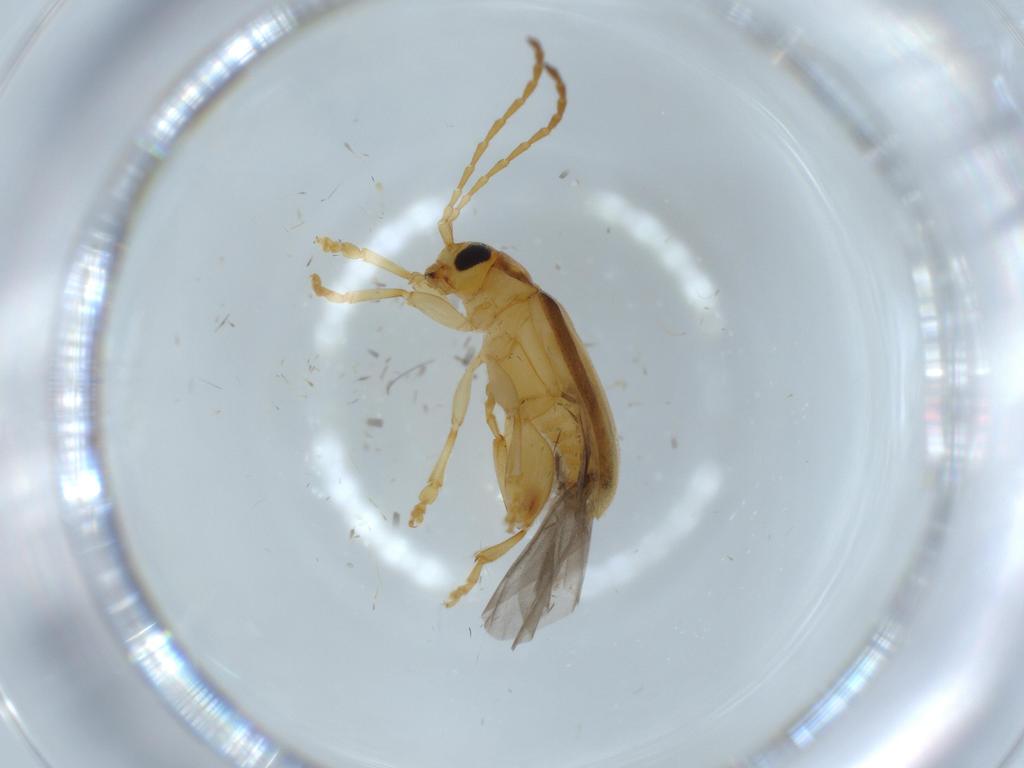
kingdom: Animalia
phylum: Arthropoda
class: Insecta
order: Coleoptera
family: Chrysomelidae
